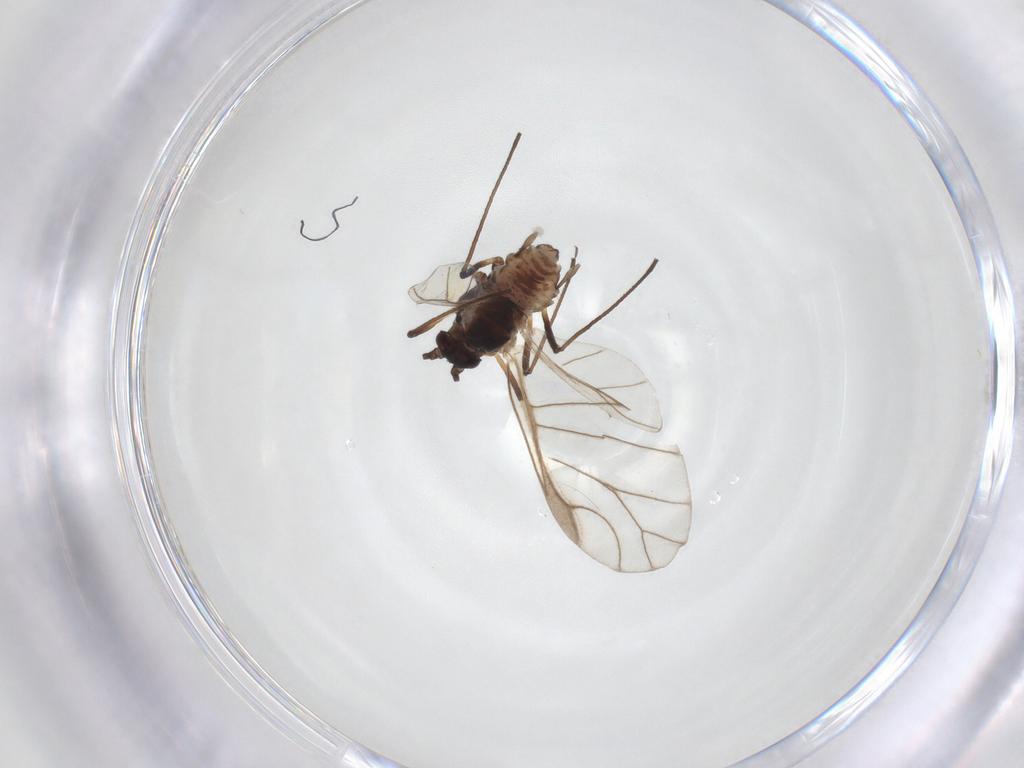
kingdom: Animalia
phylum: Arthropoda
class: Insecta
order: Hemiptera
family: Aphididae
